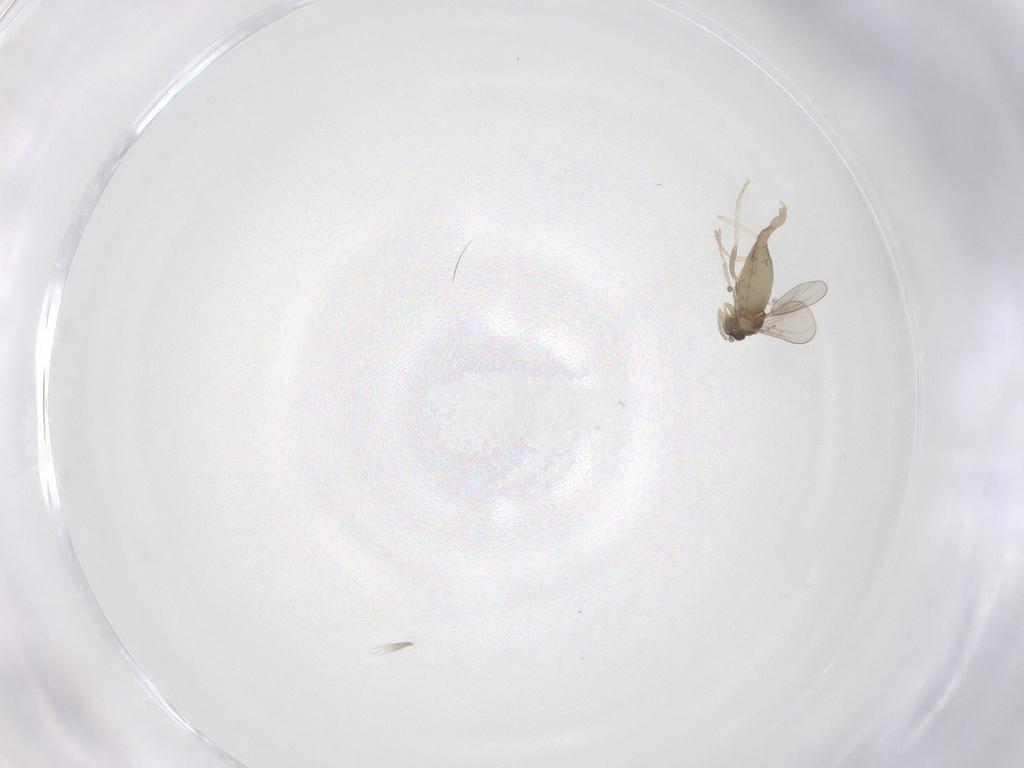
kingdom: Animalia
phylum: Arthropoda
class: Insecta
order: Diptera
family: Cecidomyiidae
